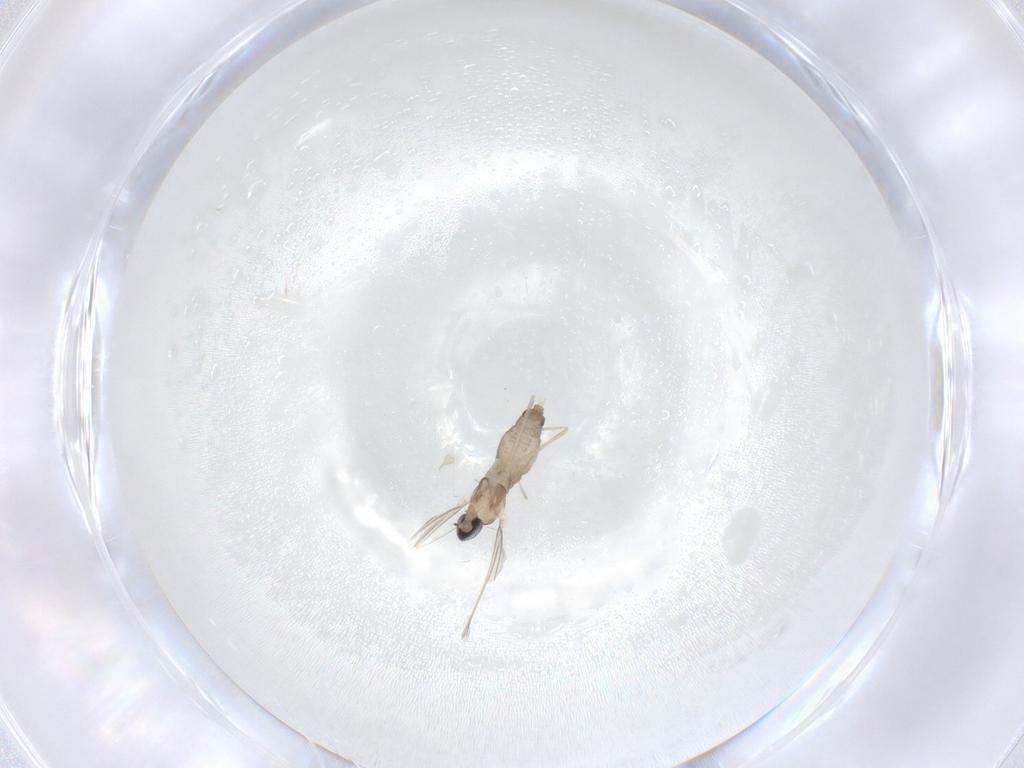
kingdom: Animalia
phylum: Arthropoda
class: Insecta
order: Diptera
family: Cecidomyiidae
